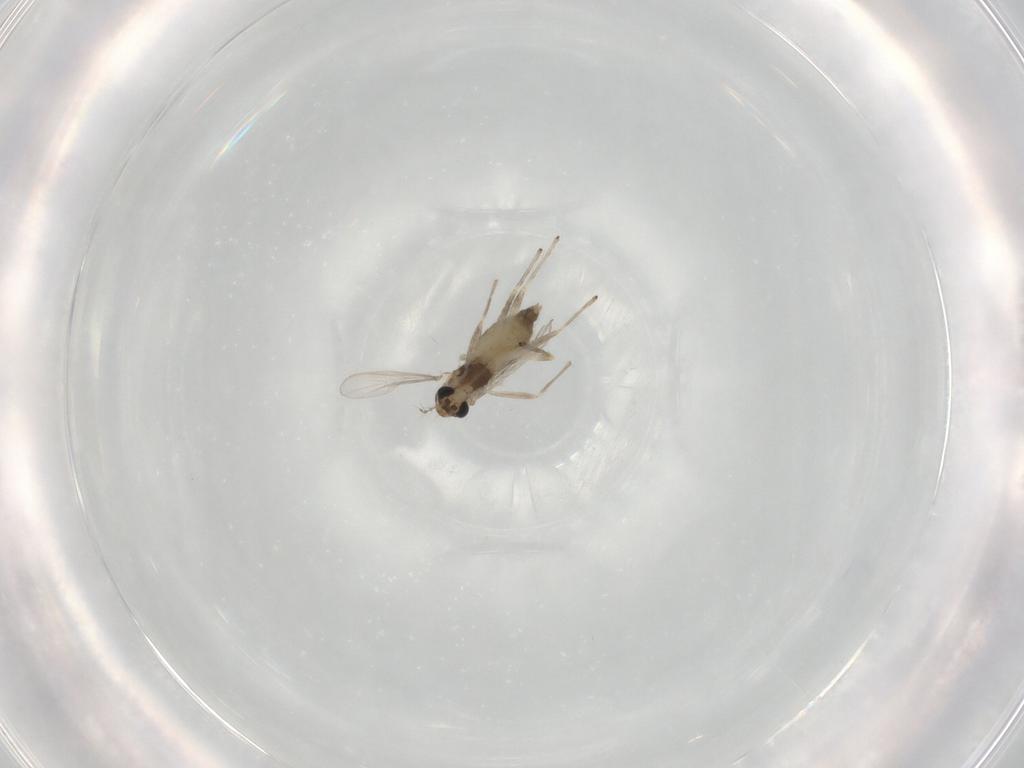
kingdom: Animalia
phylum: Arthropoda
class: Insecta
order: Diptera
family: Chironomidae
